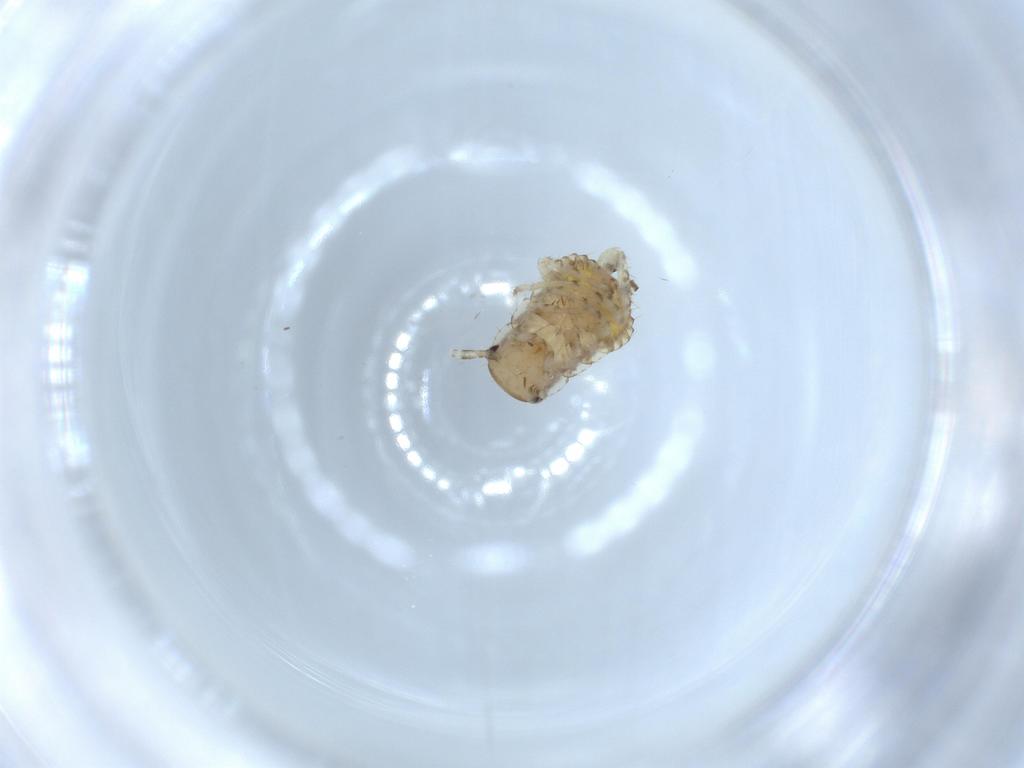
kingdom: Animalia
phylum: Arthropoda
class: Insecta
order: Blattodea
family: Ectobiidae
